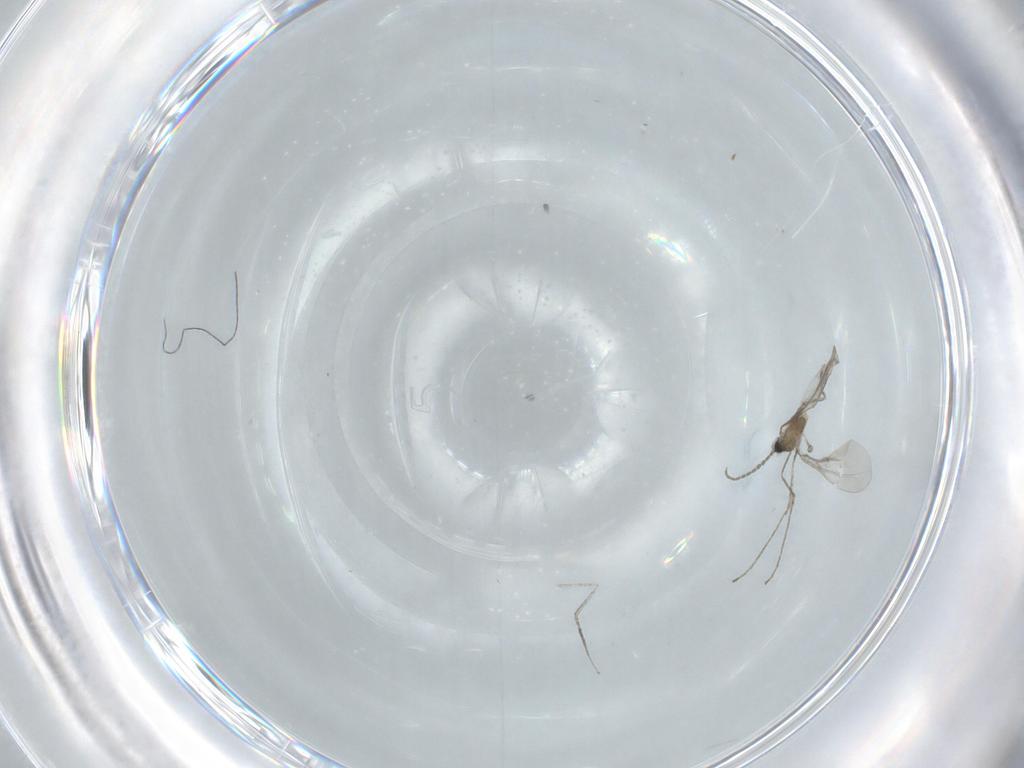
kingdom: Animalia
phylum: Arthropoda
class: Insecta
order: Diptera
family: Cecidomyiidae
